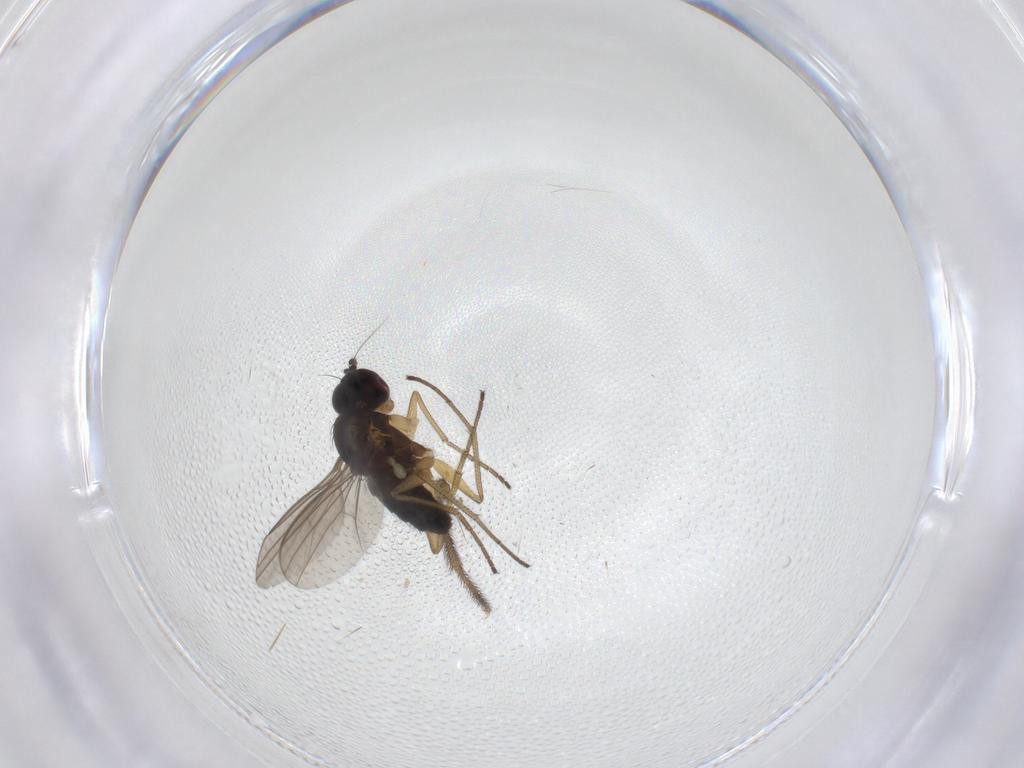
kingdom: Animalia
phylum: Arthropoda
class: Insecta
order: Diptera
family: Dolichopodidae
